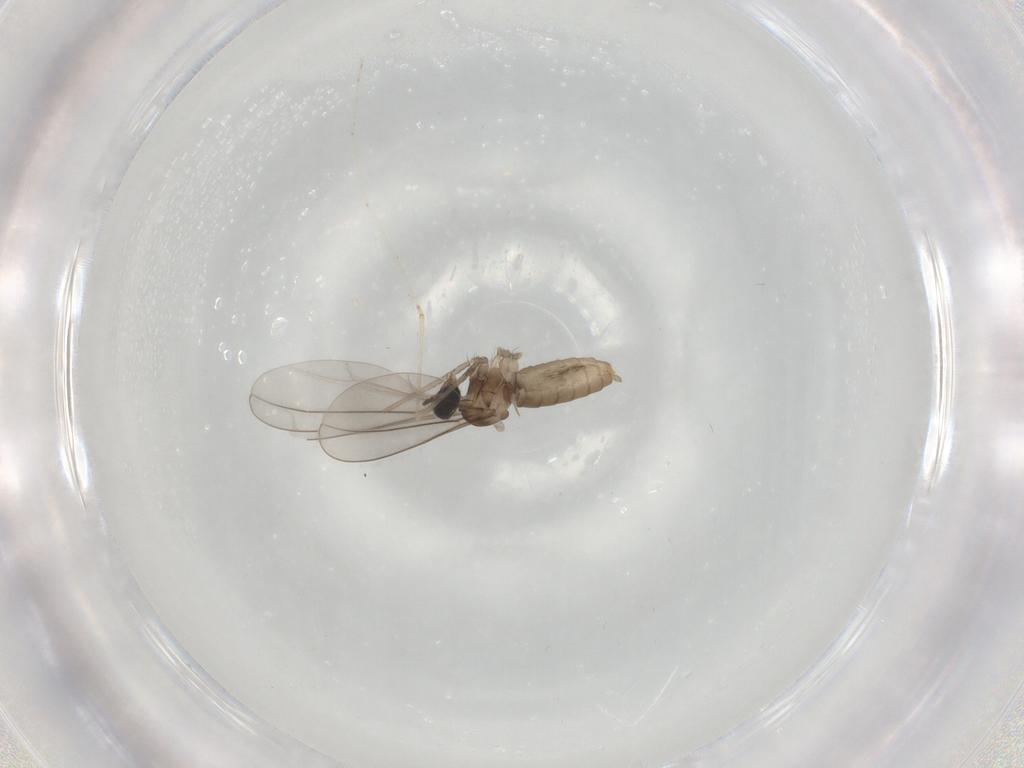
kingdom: Animalia
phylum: Arthropoda
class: Insecta
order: Diptera
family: Cecidomyiidae
